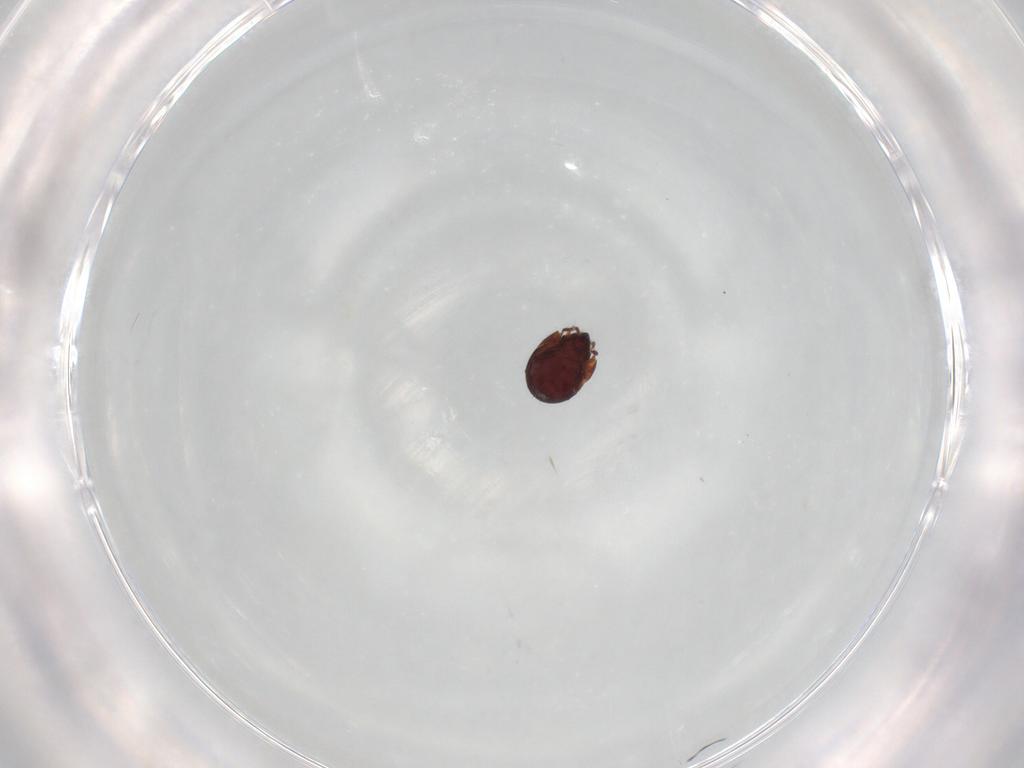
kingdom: Animalia
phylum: Arthropoda
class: Arachnida
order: Sarcoptiformes
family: Humerobatidae
